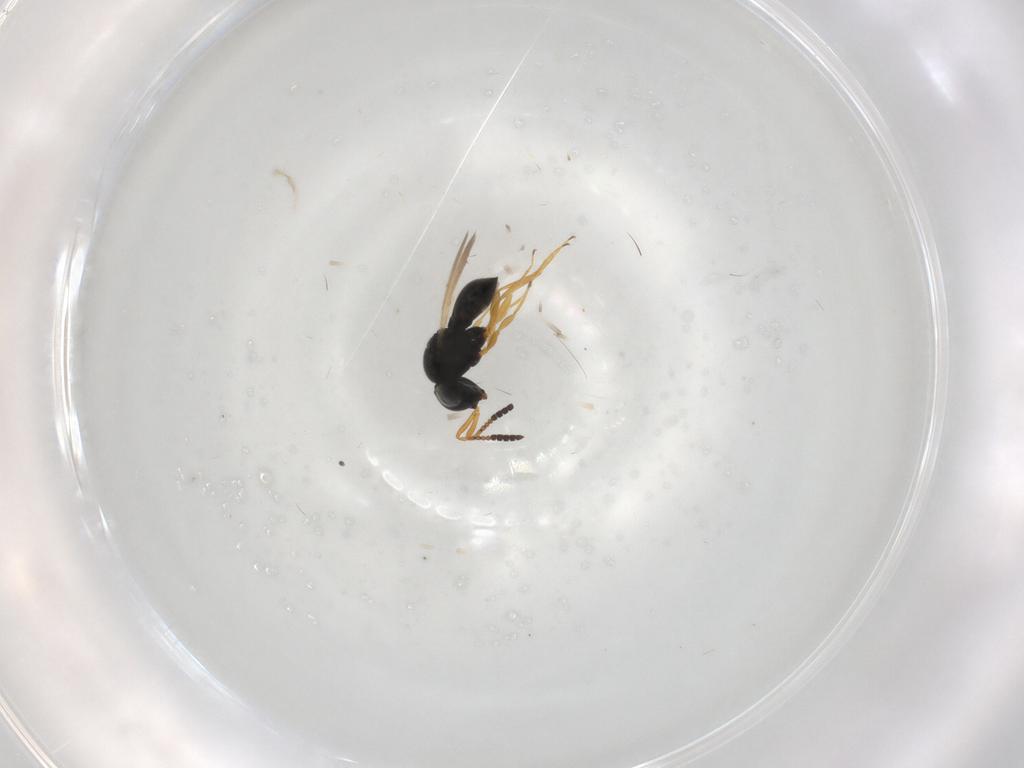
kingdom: Animalia
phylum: Arthropoda
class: Insecta
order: Hymenoptera
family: Scelionidae
